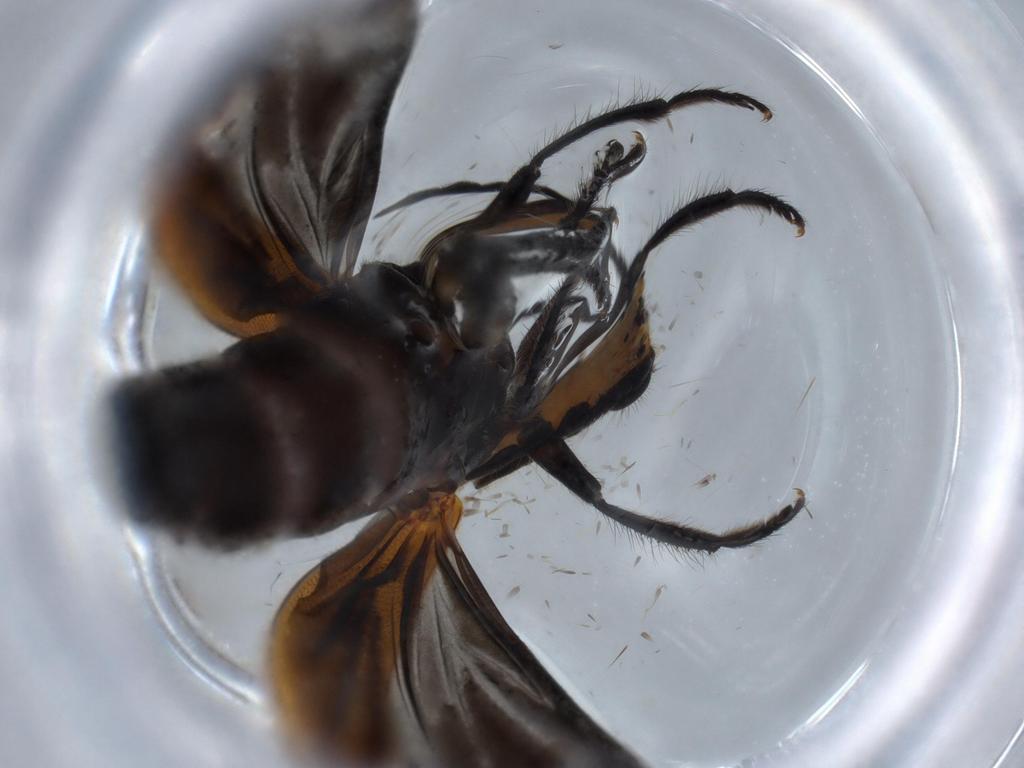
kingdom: Animalia
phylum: Arthropoda
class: Insecta
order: Coleoptera
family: Cleridae
